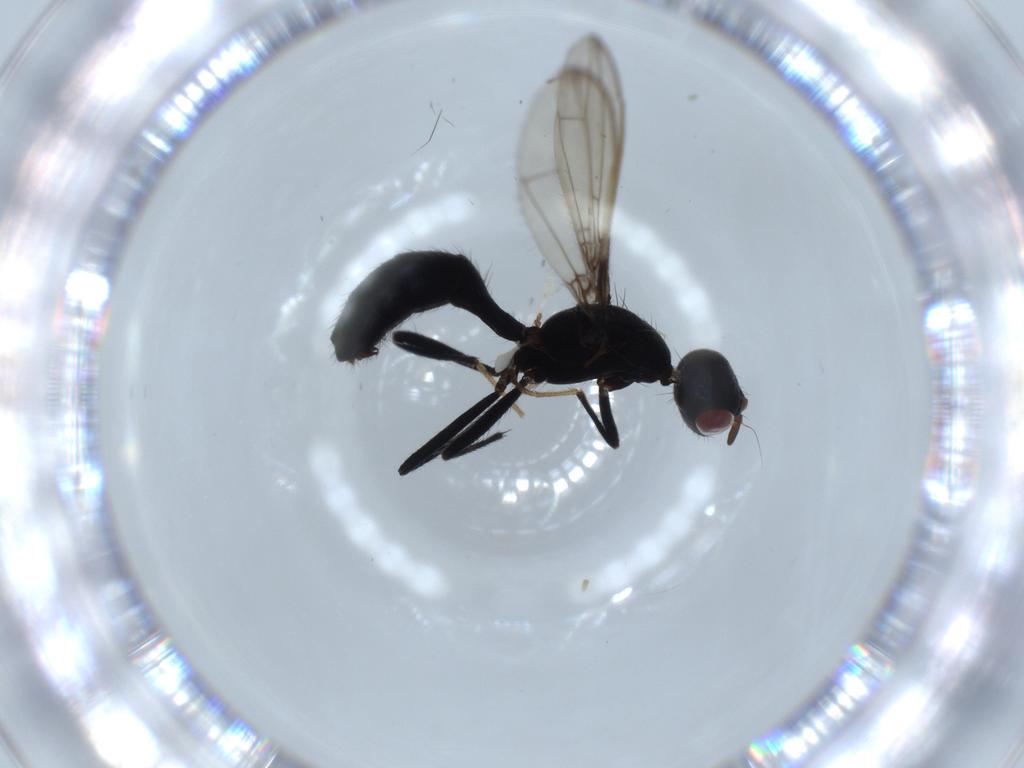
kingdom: Animalia
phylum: Arthropoda
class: Insecta
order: Diptera
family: Richardiidae
